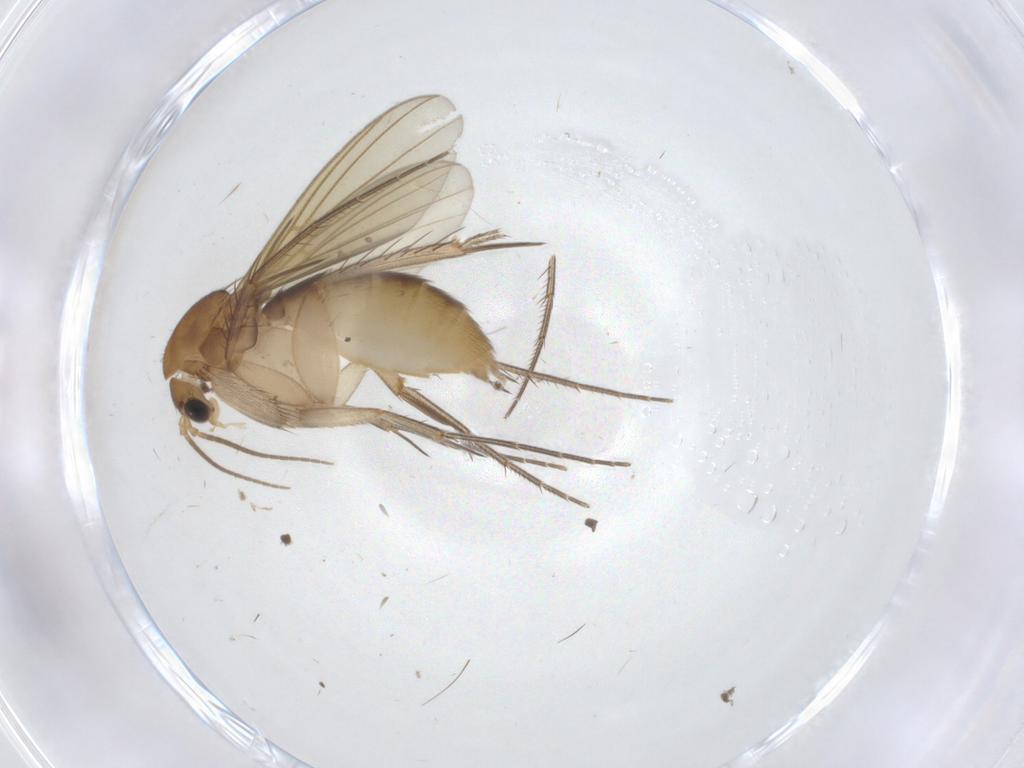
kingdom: Animalia
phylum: Arthropoda
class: Insecta
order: Diptera
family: Mycetophilidae
